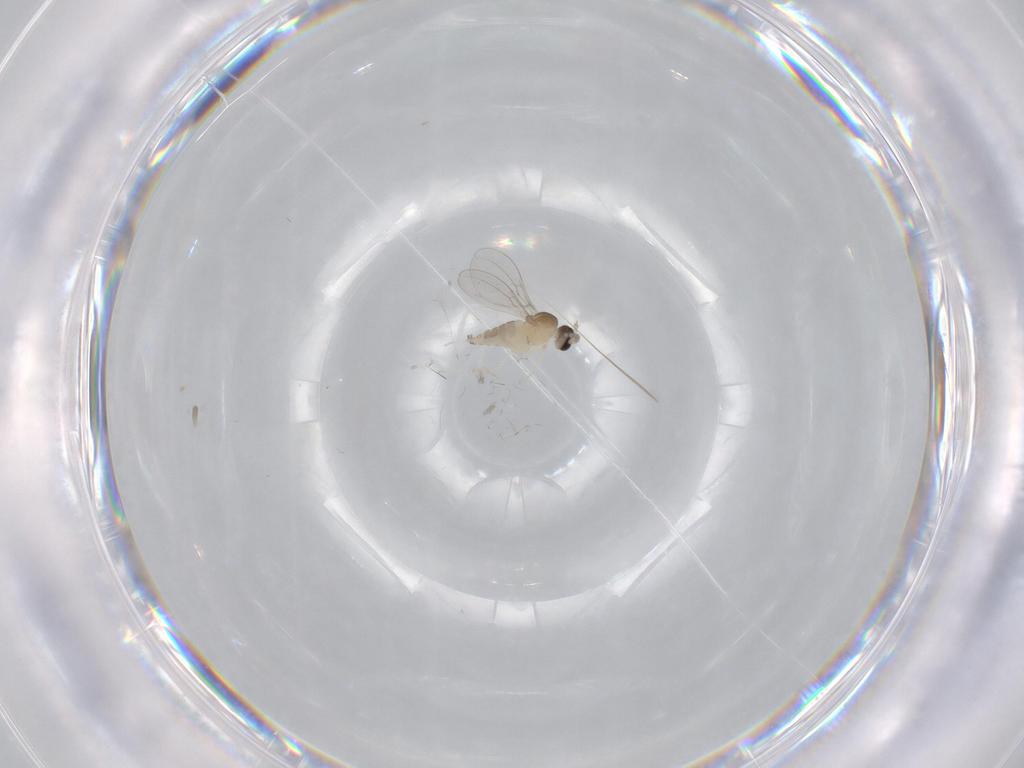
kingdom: Animalia
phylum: Arthropoda
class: Insecta
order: Diptera
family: Cecidomyiidae
